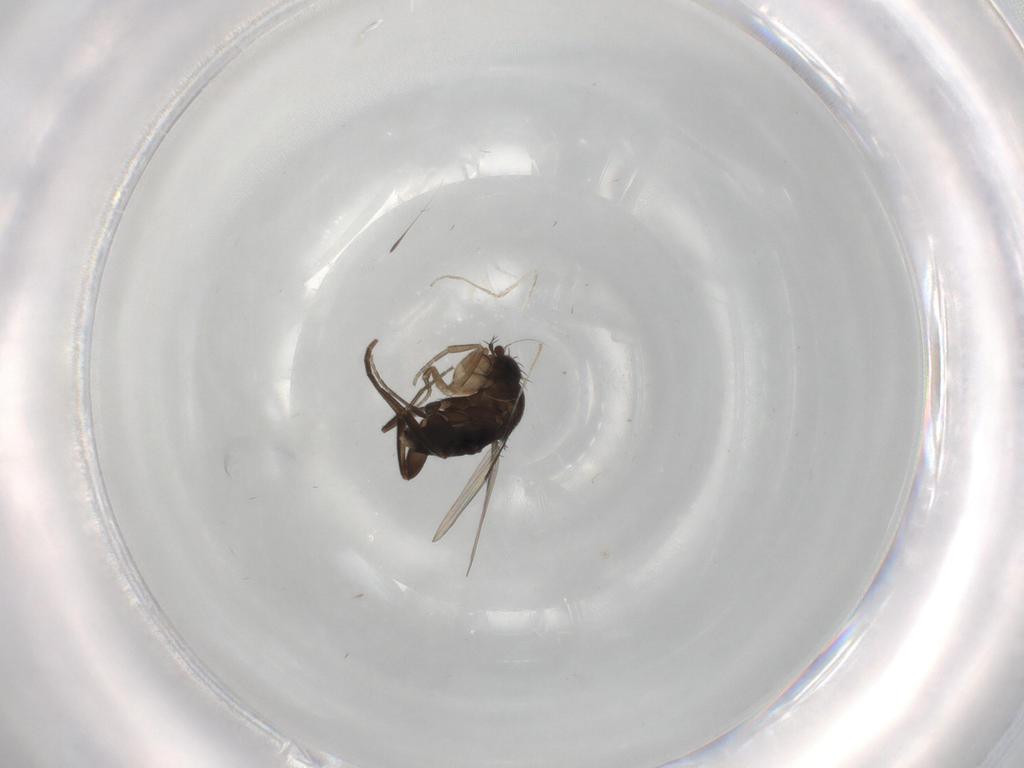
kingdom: Animalia
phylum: Arthropoda
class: Insecta
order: Diptera
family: Phoridae
